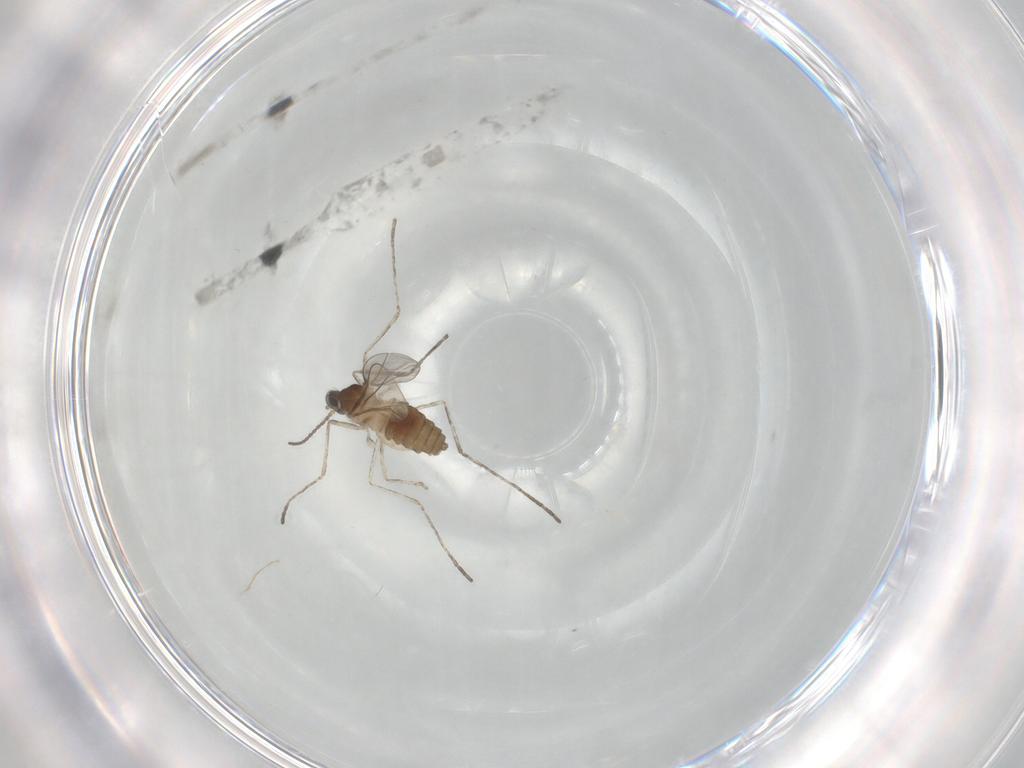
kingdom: Animalia
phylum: Arthropoda
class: Insecta
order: Diptera
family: Cecidomyiidae
